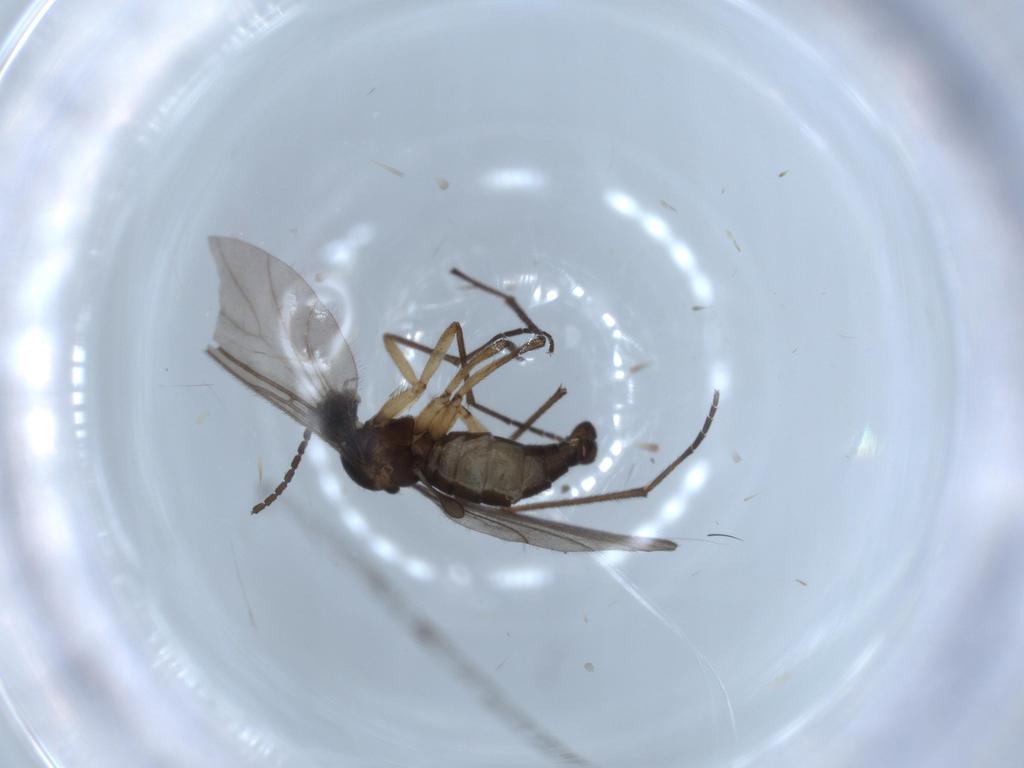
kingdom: Animalia
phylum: Arthropoda
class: Insecta
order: Diptera
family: Sciaridae
